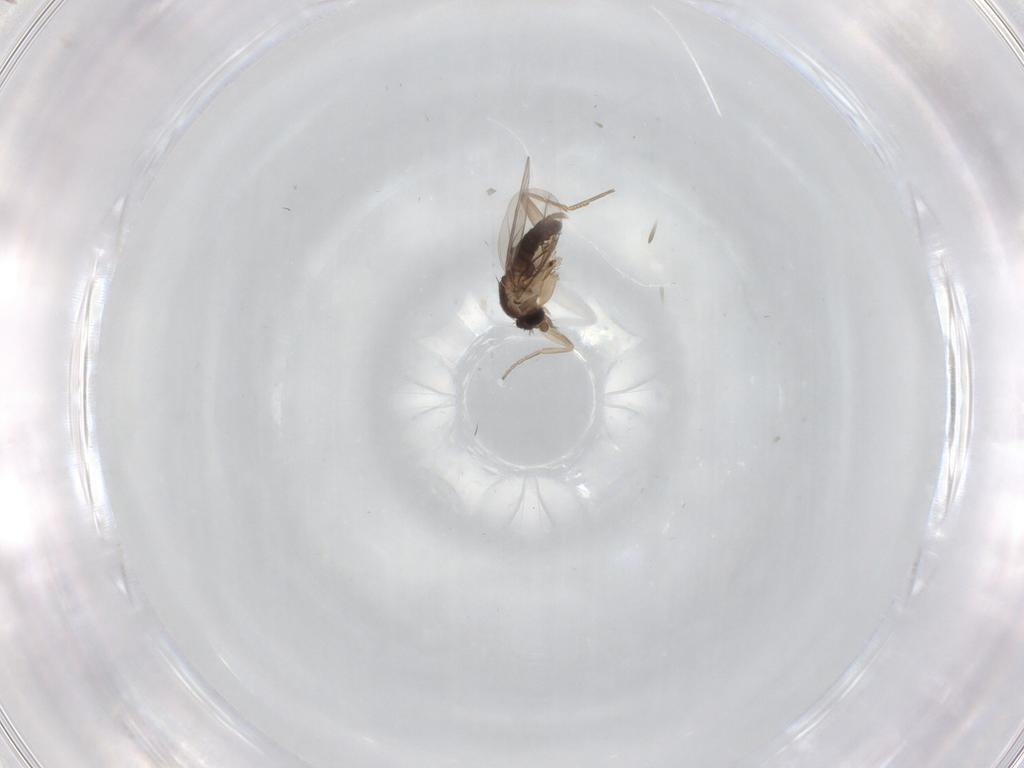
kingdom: Animalia
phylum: Arthropoda
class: Insecta
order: Diptera
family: Phoridae
